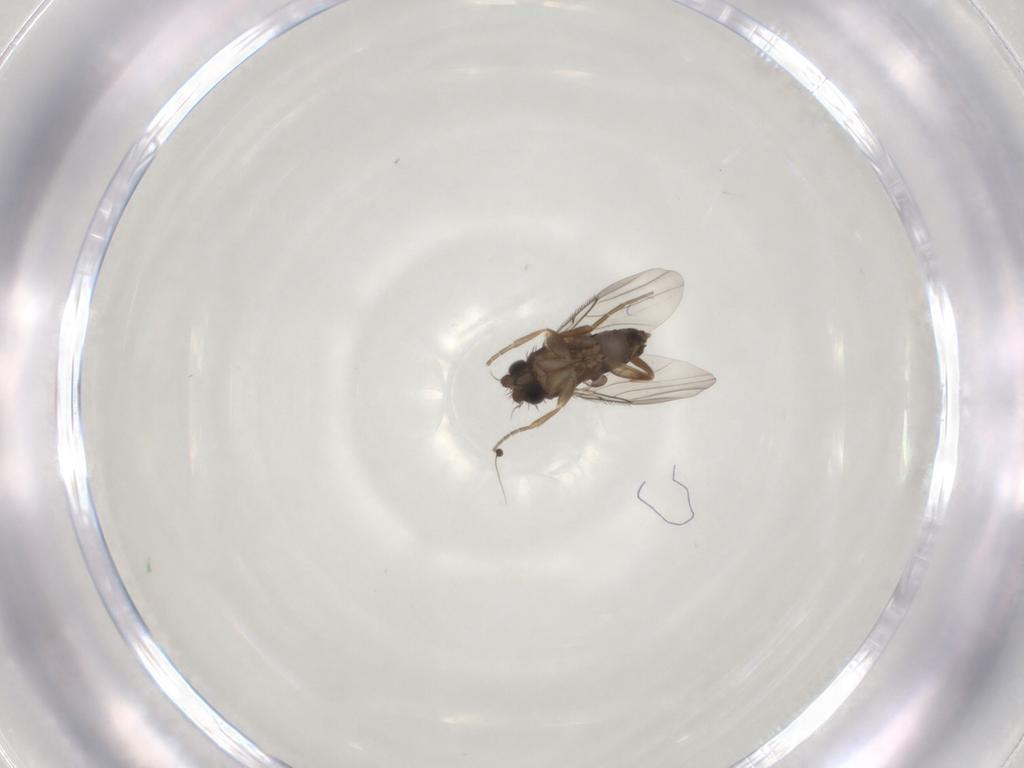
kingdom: Animalia
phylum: Arthropoda
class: Insecta
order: Diptera
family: Phoridae
